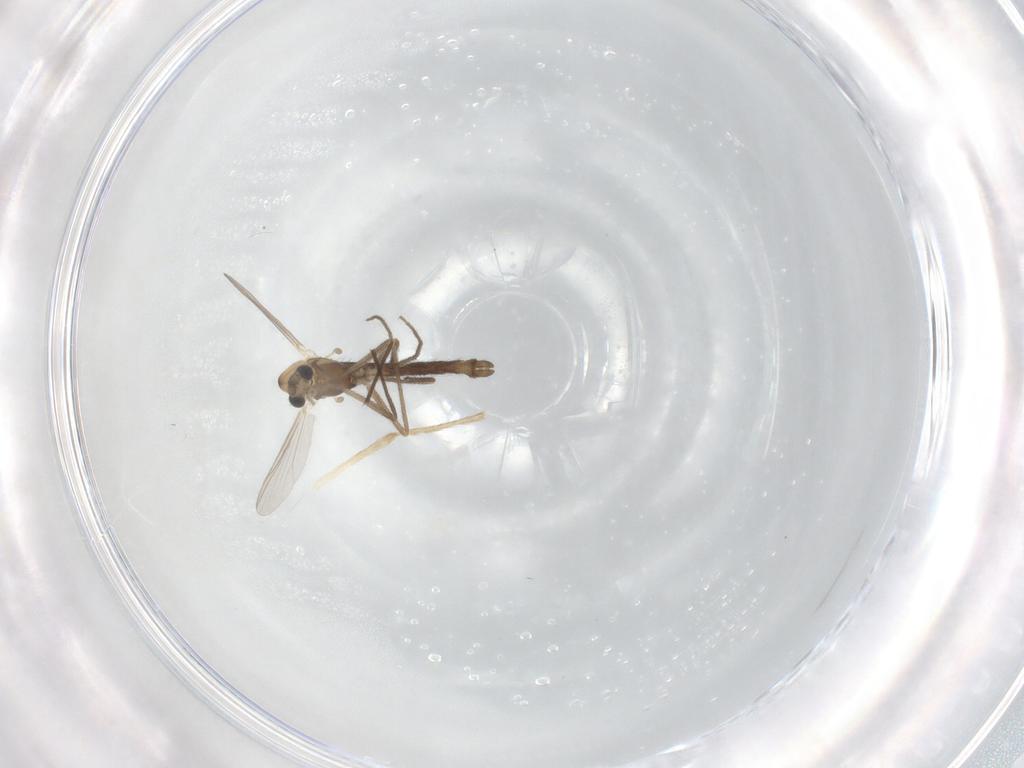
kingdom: Animalia
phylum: Arthropoda
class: Insecta
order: Diptera
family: Chironomidae
